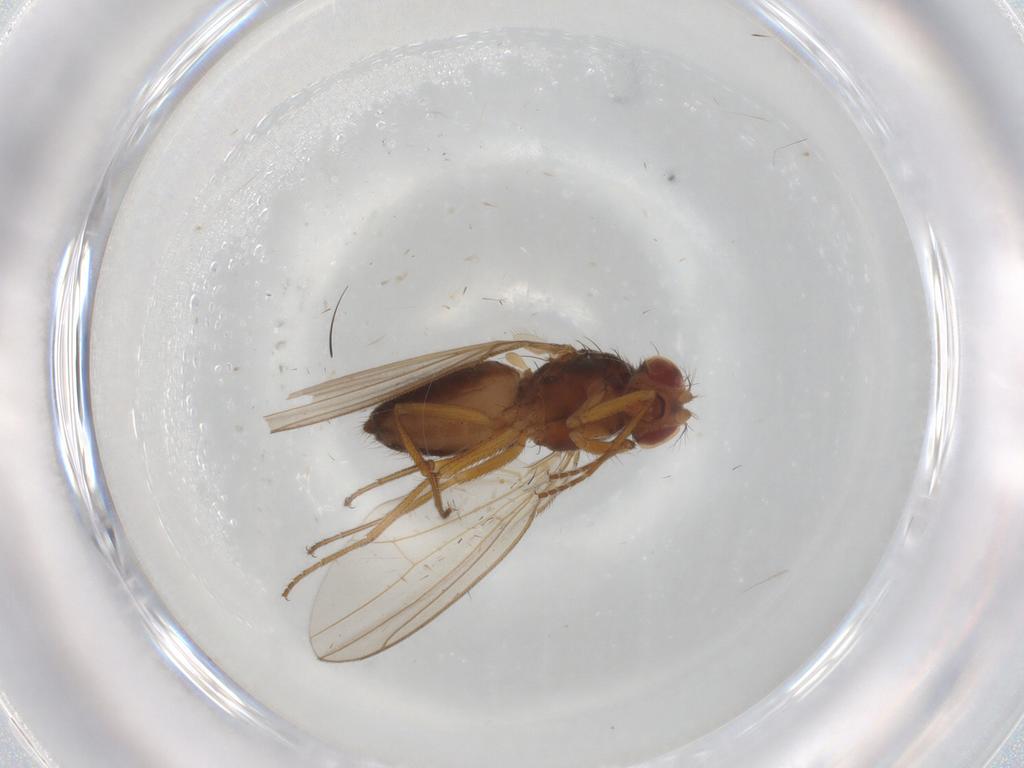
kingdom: Animalia
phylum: Arthropoda
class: Insecta
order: Diptera
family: Drosophilidae
